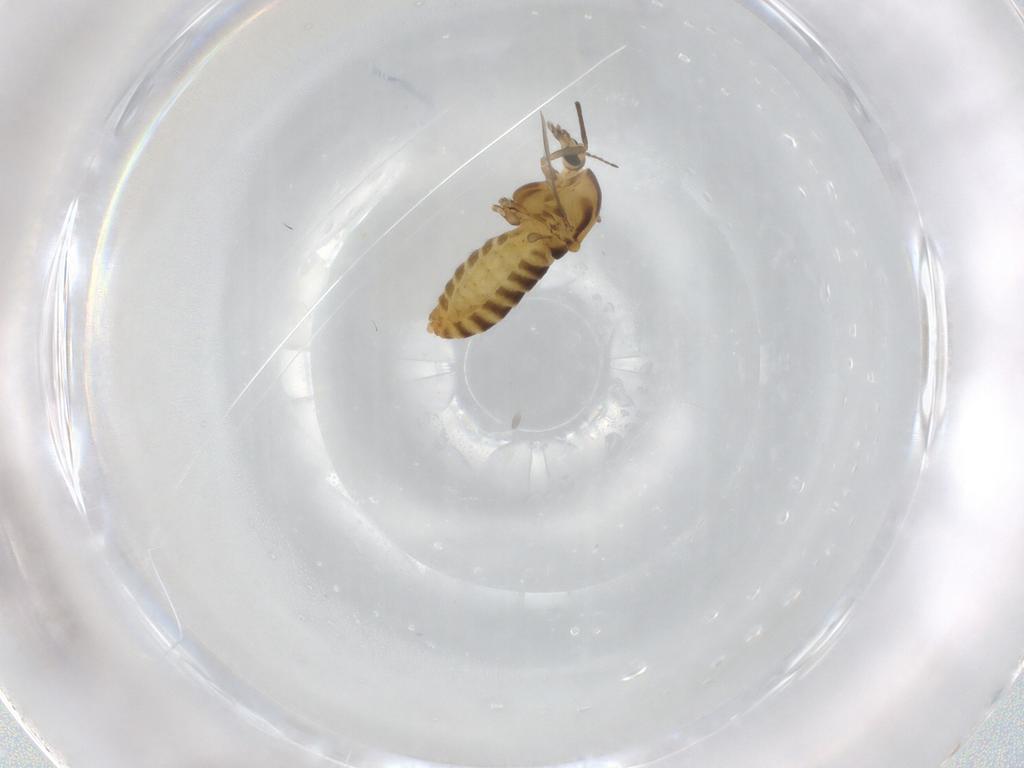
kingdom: Animalia
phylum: Arthropoda
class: Insecta
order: Diptera
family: Chironomidae
